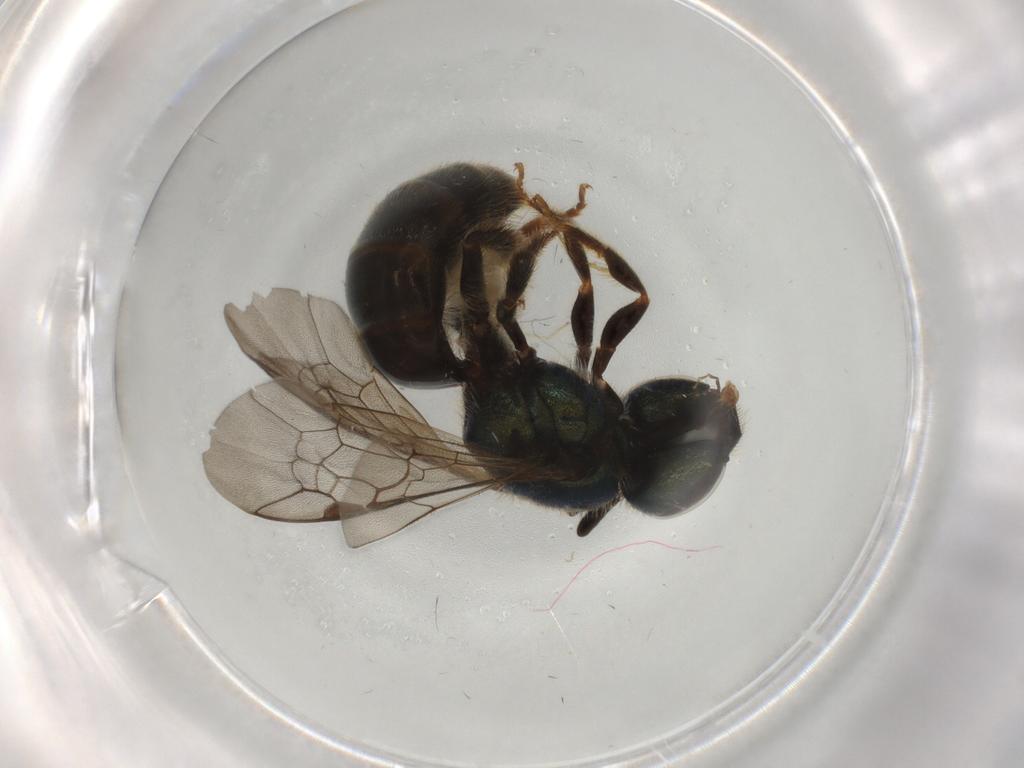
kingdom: Animalia
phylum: Arthropoda
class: Insecta
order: Hymenoptera
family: Halictidae
